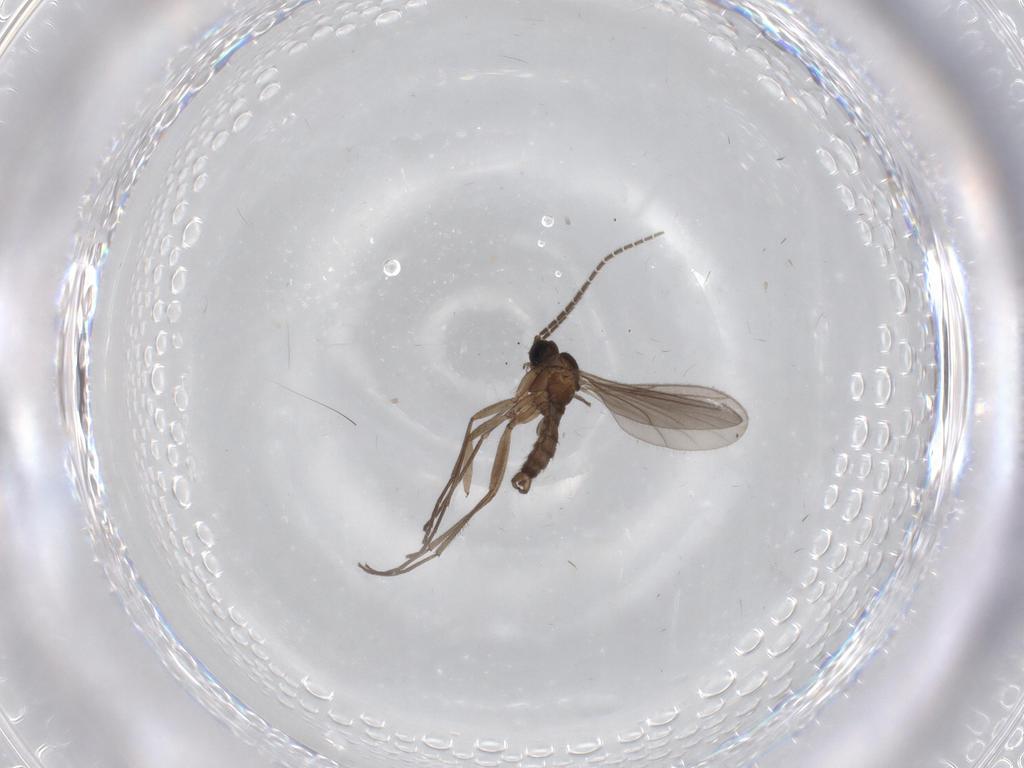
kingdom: Animalia
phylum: Arthropoda
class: Insecta
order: Diptera
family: Sciaridae
